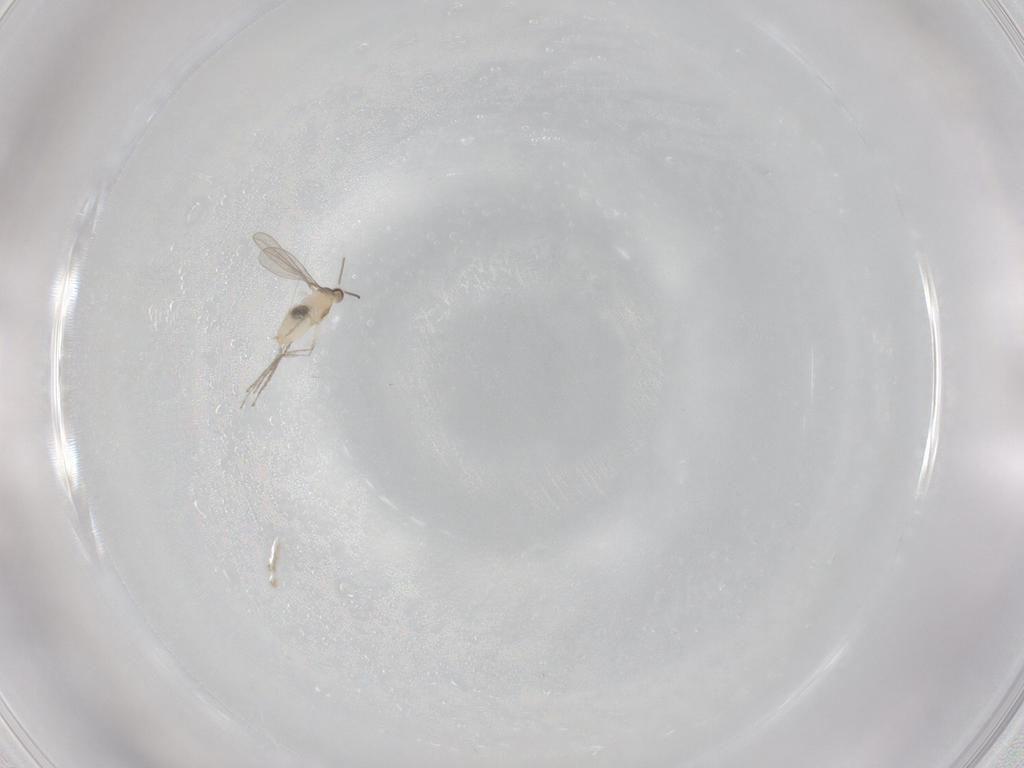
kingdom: Animalia
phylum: Arthropoda
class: Insecta
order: Diptera
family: Cecidomyiidae
